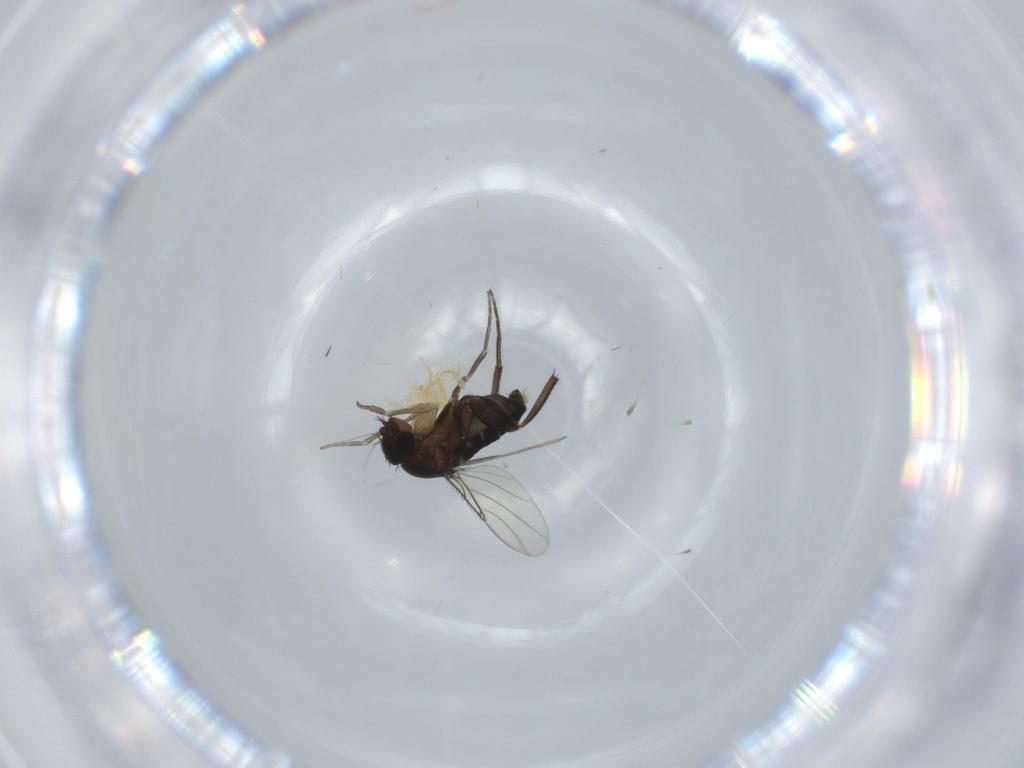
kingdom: Animalia
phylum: Arthropoda
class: Insecta
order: Diptera
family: Phoridae
